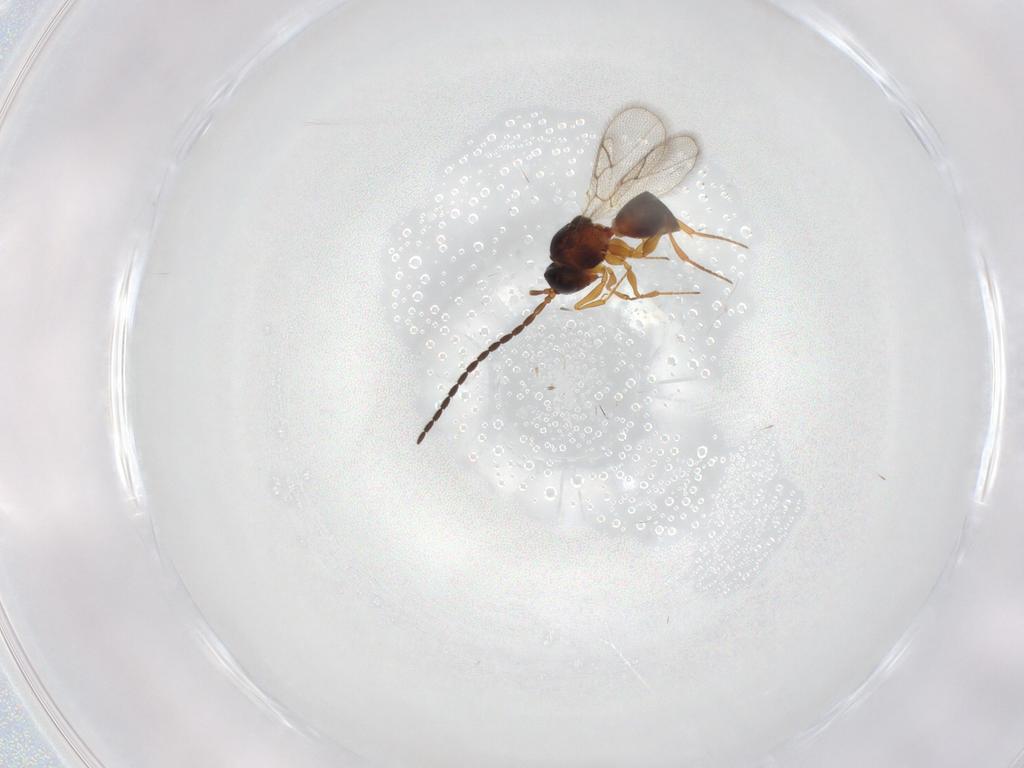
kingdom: Animalia
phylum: Arthropoda
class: Insecta
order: Hymenoptera
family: Figitidae
